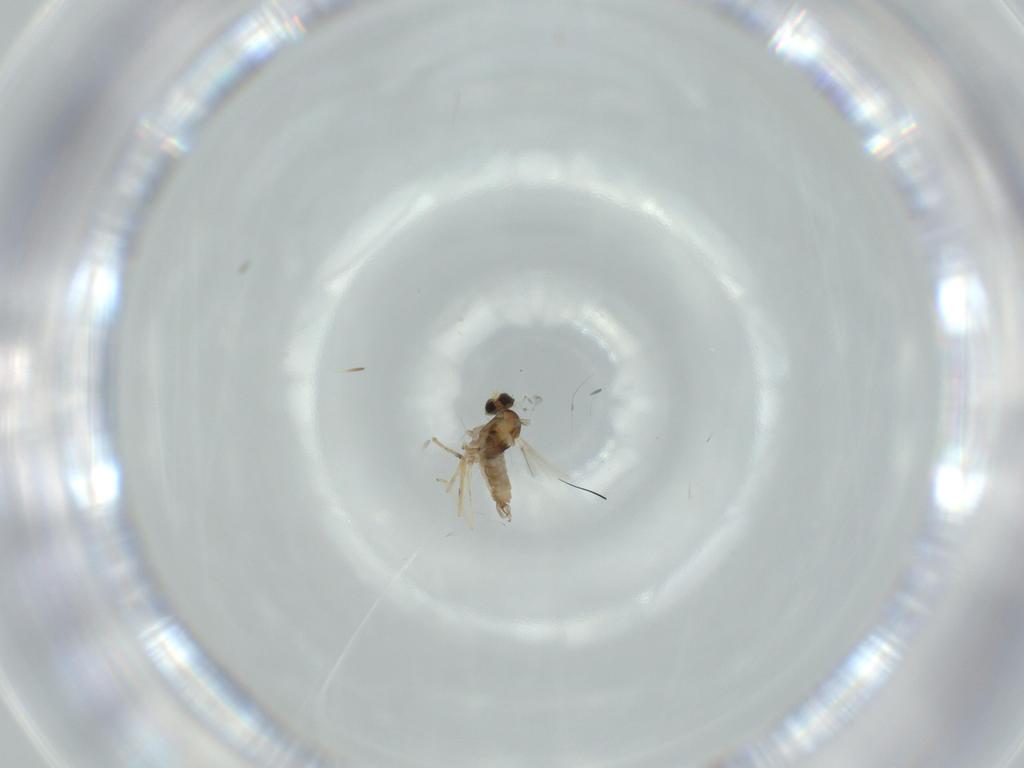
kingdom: Animalia
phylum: Arthropoda
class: Insecta
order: Diptera
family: Cecidomyiidae
